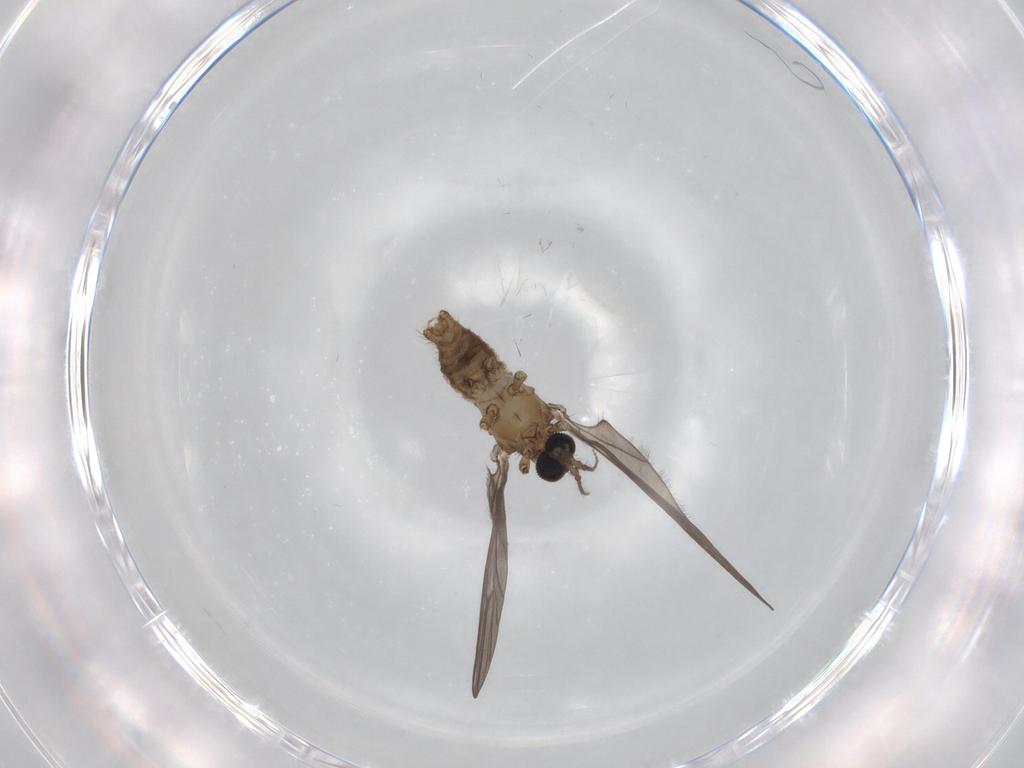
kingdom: Animalia
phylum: Arthropoda
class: Insecta
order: Diptera
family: Limoniidae
